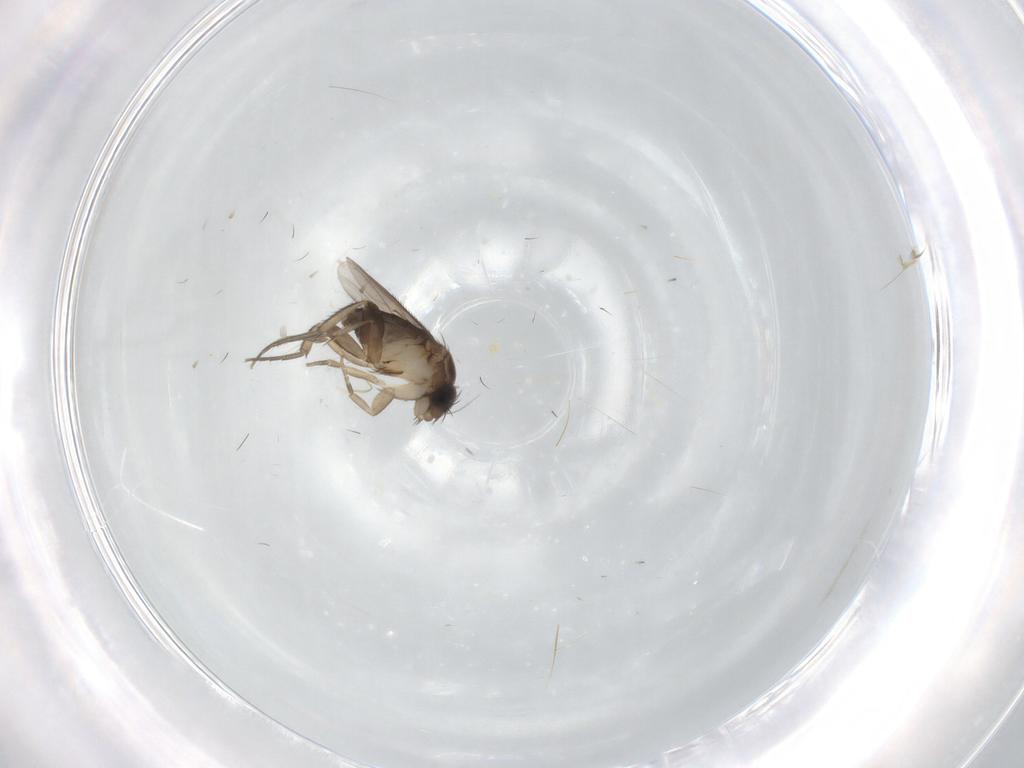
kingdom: Animalia
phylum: Arthropoda
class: Insecta
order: Diptera
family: Phoridae
